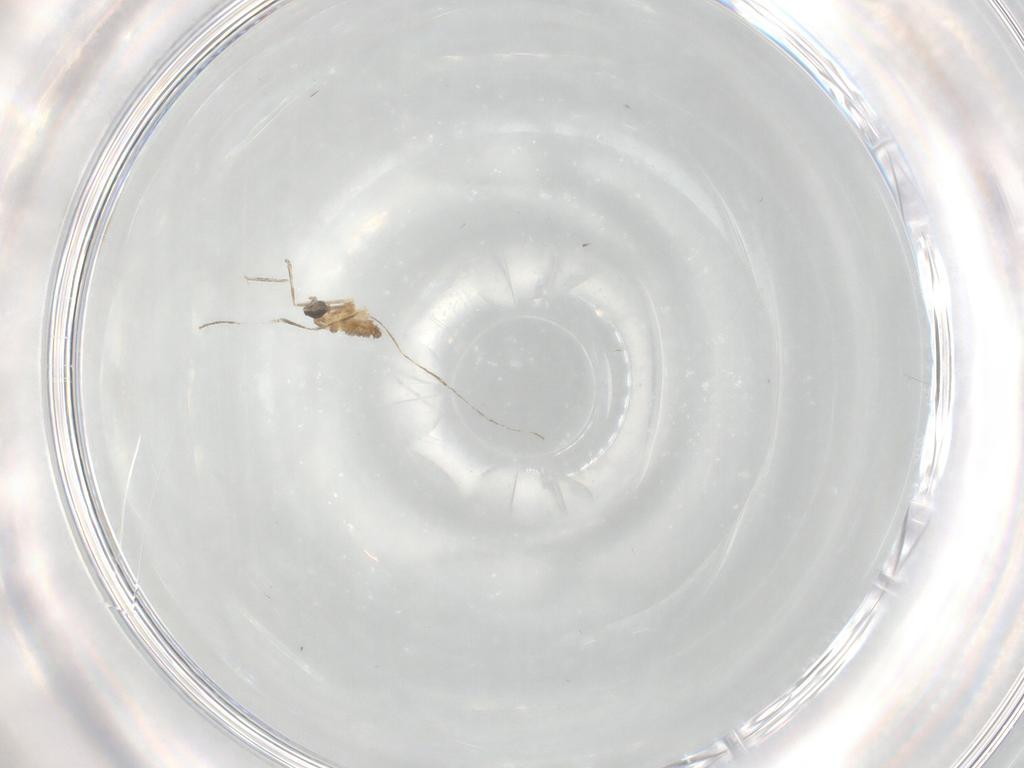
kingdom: Animalia
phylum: Arthropoda
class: Insecta
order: Diptera
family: Cecidomyiidae
